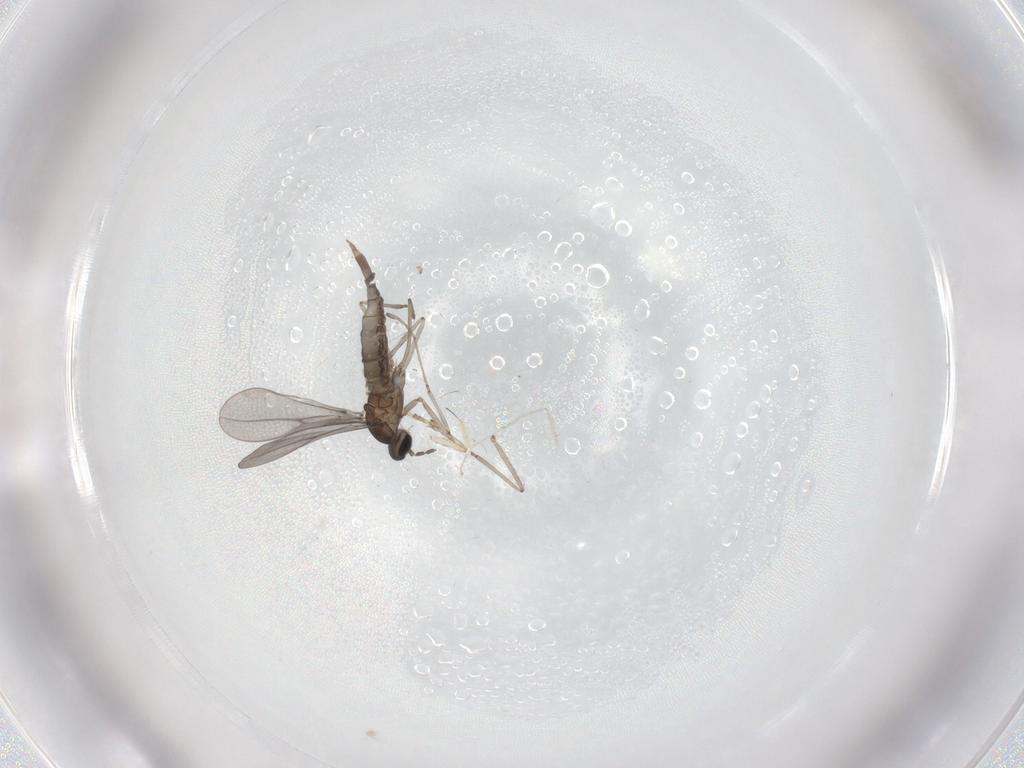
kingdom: Animalia
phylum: Arthropoda
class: Insecta
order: Diptera
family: Psychodidae
